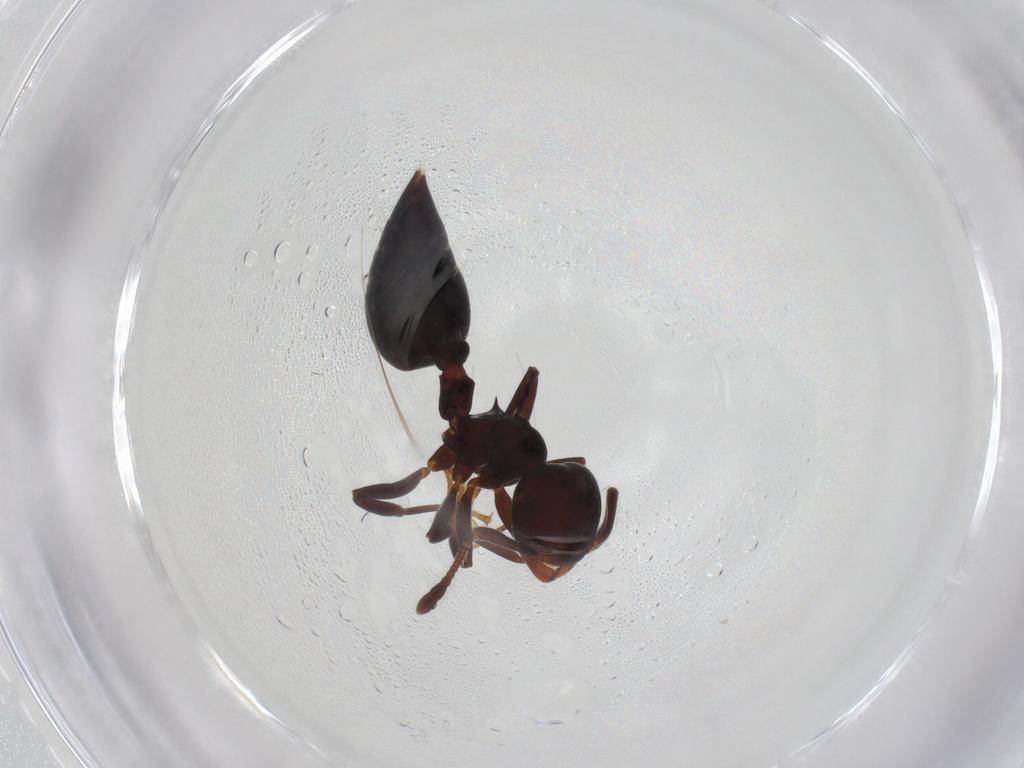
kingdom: Animalia
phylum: Arthropoda
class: Insecta
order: Hymenoptera
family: Formicidae
